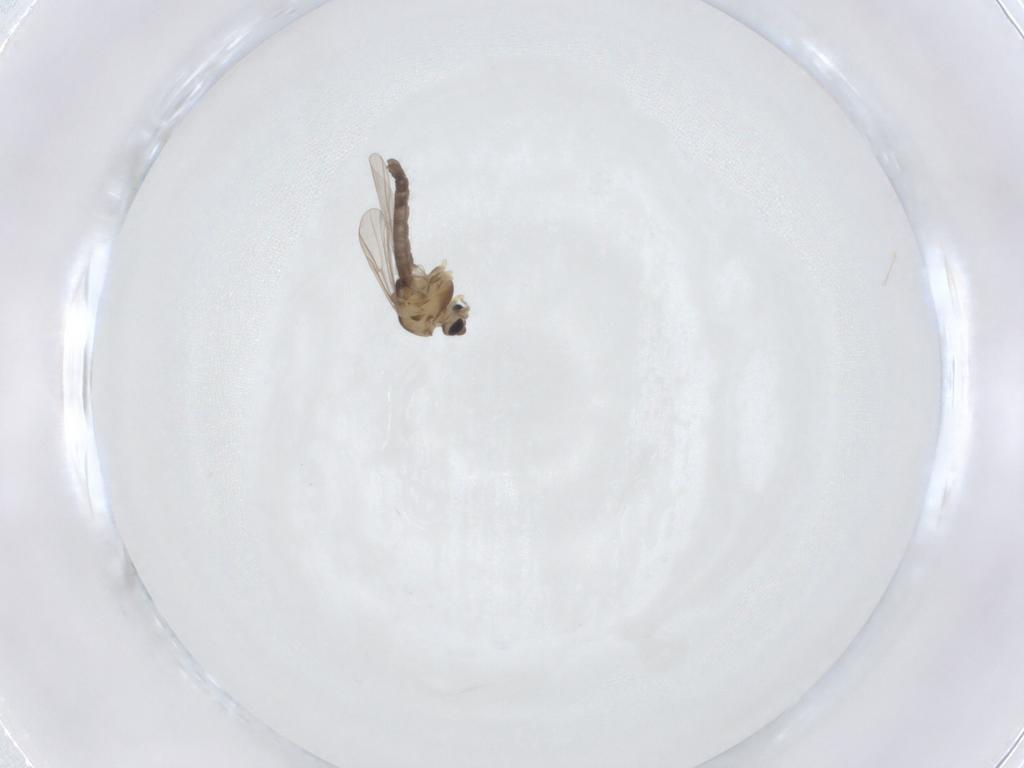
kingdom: Animalia
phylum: Arthropoda
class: Insecta
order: Diptera
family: Chironomidae
